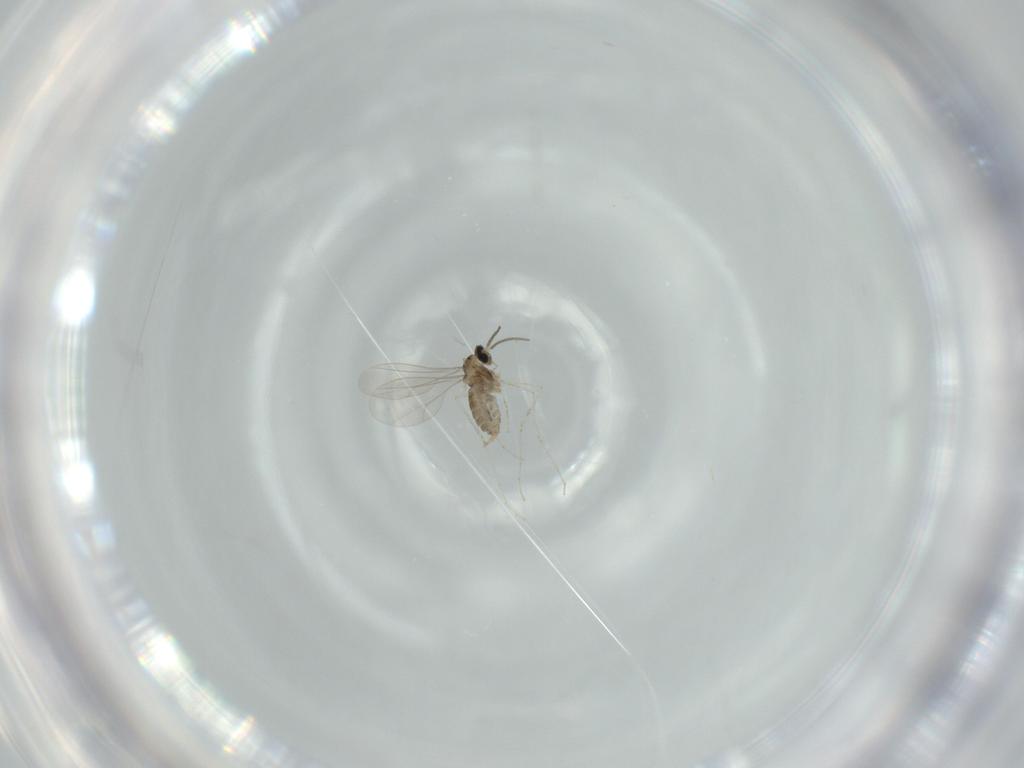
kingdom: Animalia
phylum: Arthropoda
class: Insecta
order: Diptera
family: Cecidomyiidae
